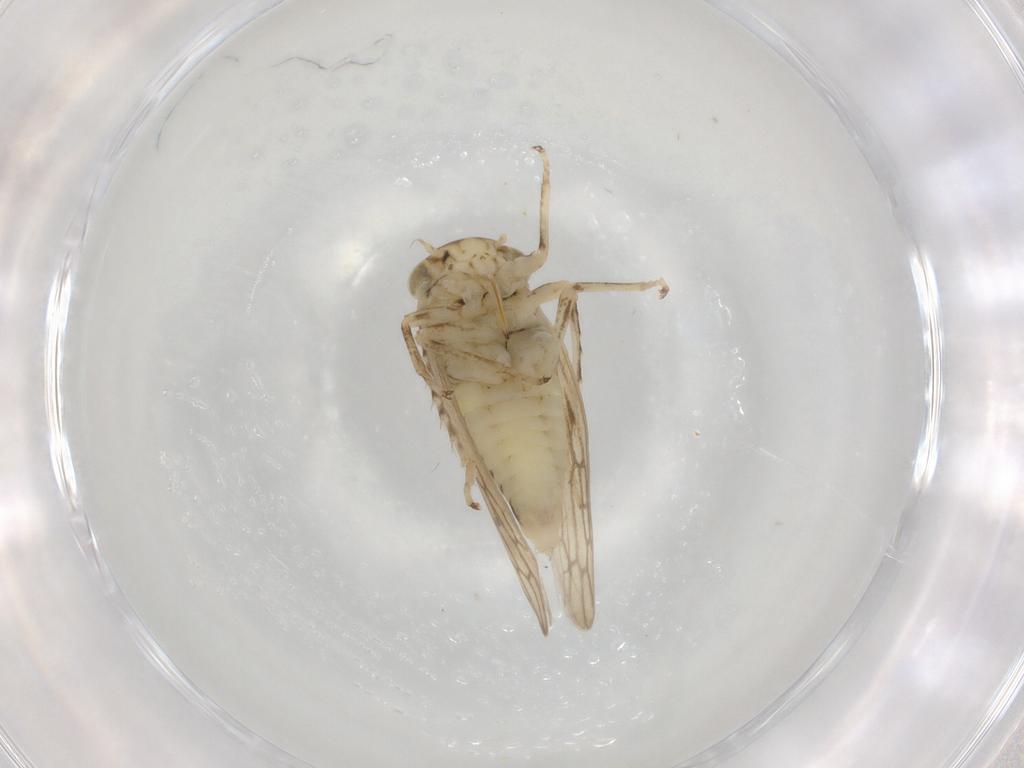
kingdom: Animalia
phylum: Arthropoda
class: Insecta
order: Hemiptera
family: Cicadellidae
